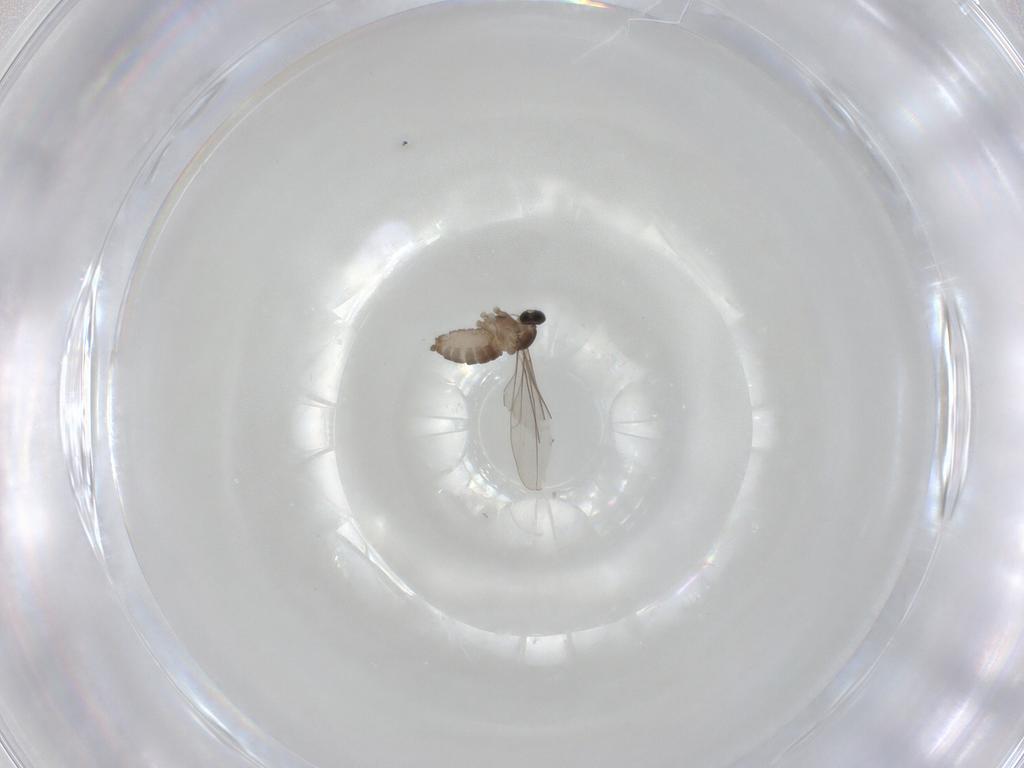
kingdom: Animalia
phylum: Arthropoda
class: Insecta
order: Diptera
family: Cecidomyiidae
